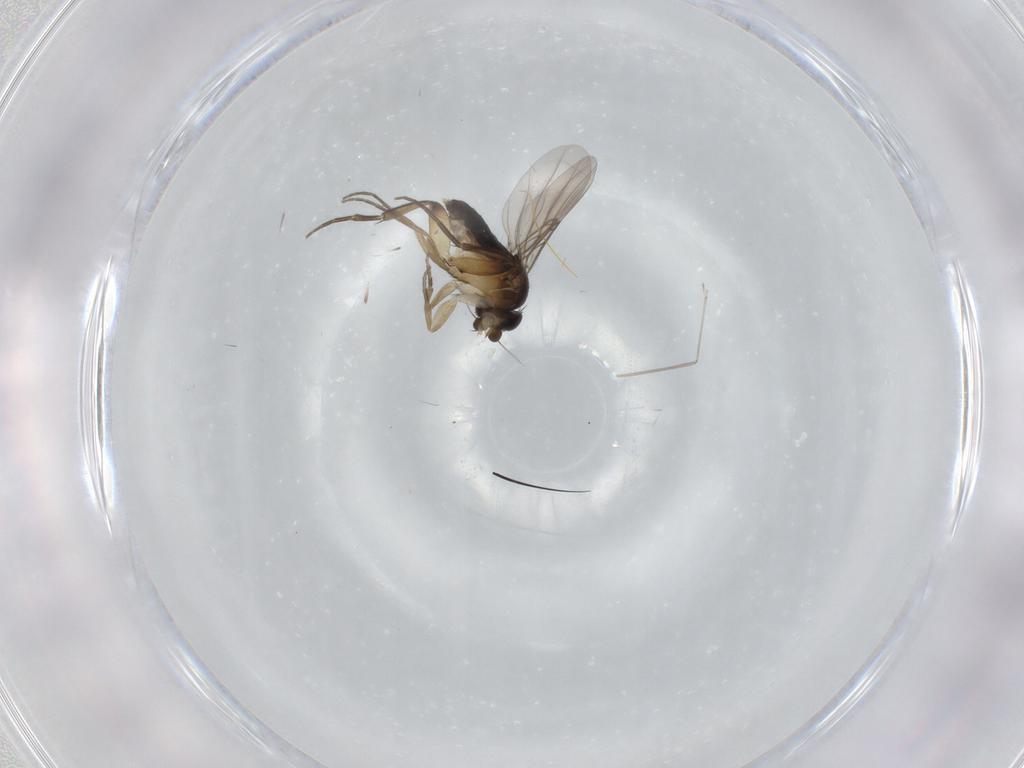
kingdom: Animalia
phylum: Arthropoda
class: Insecta
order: Diptera
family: Phoridae
